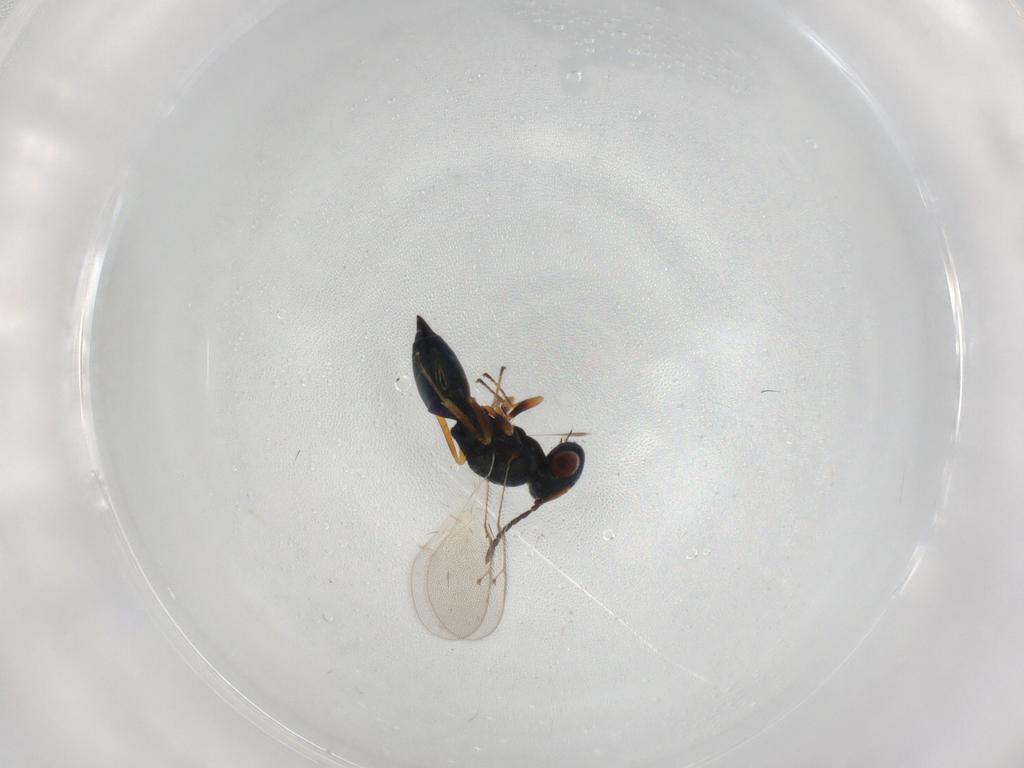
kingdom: Animalia
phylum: Arthropoda
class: Insecta
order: Hymenoptera
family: Platygastridae
